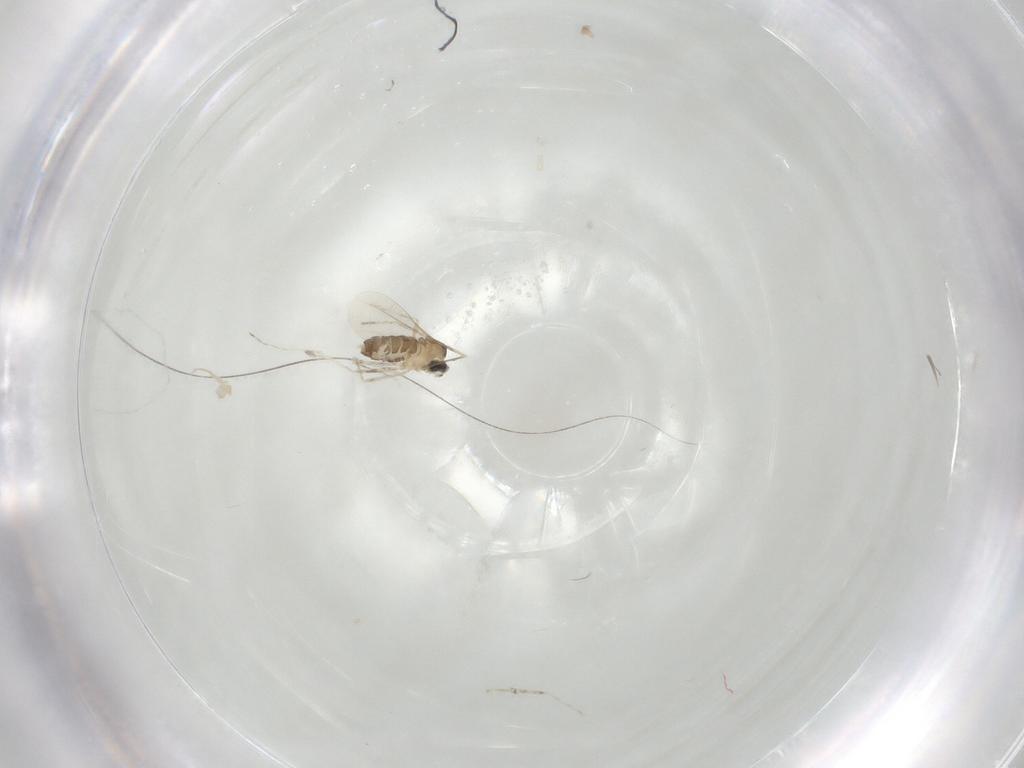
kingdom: Animalia
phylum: Arthropoda
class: Insecta
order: Diptera
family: Cecidomyiidae
